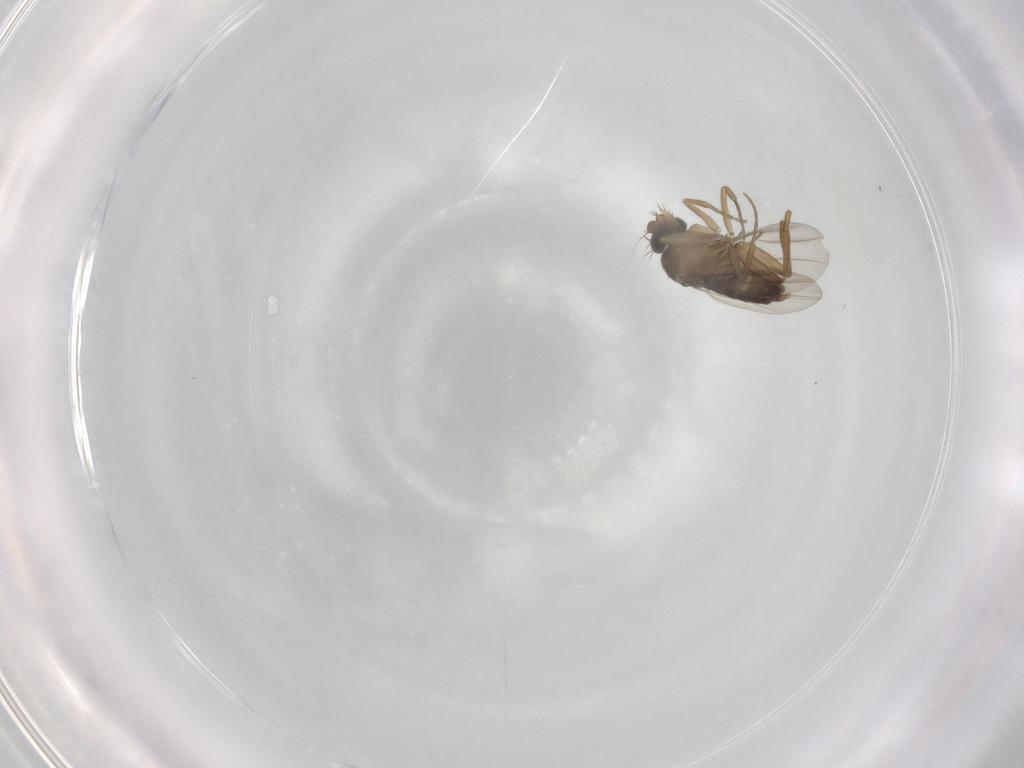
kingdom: Animalia
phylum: Arthropoda
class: Insecta
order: Diptera
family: Phoridae
